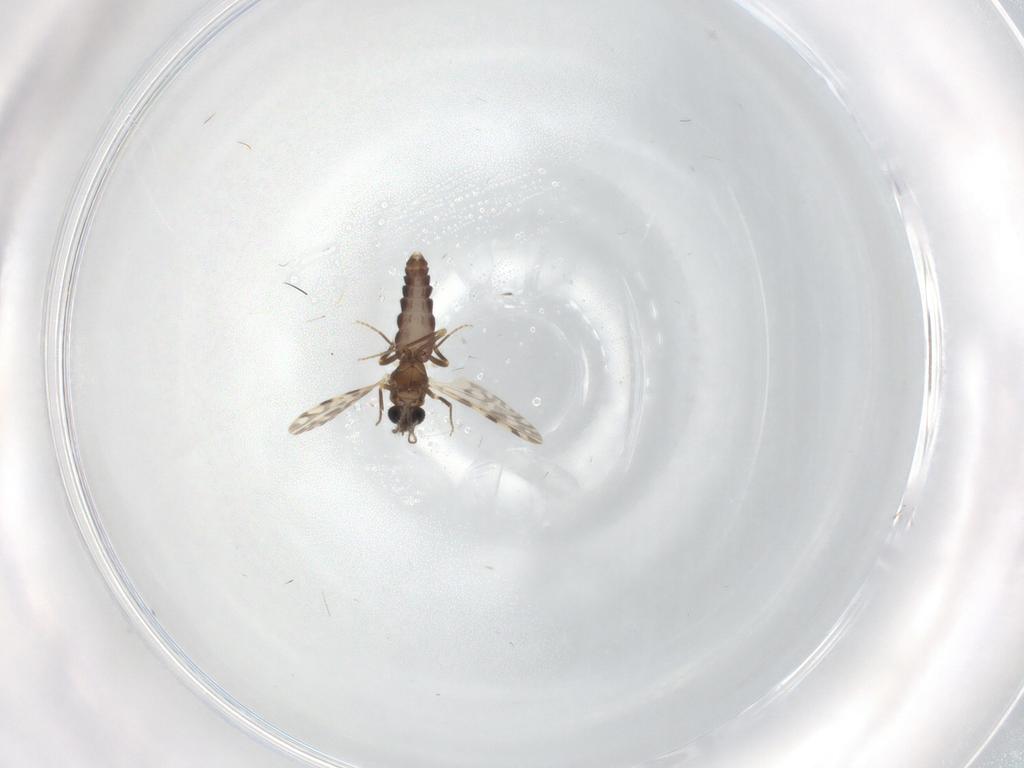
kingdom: Animalia
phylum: Arthropoda
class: Insecta
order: Diptera
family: Ceratopogonidae
